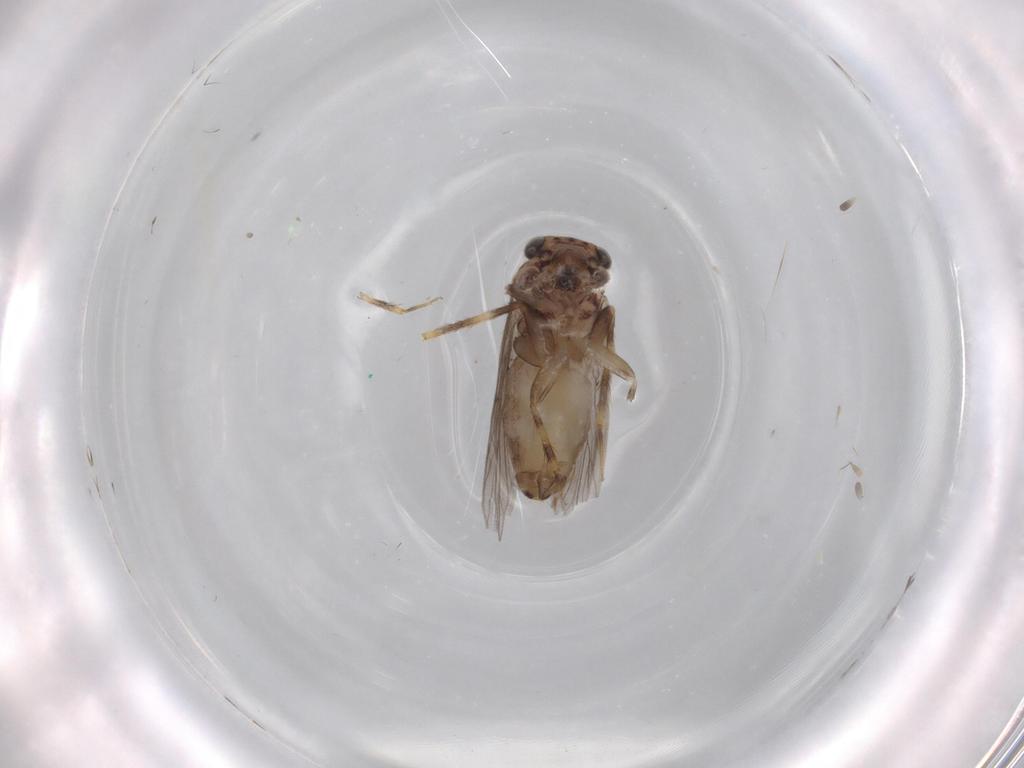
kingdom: Animalia
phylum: Arthropoda
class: Insecta
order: Psocodea
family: Lepidopsocidae
